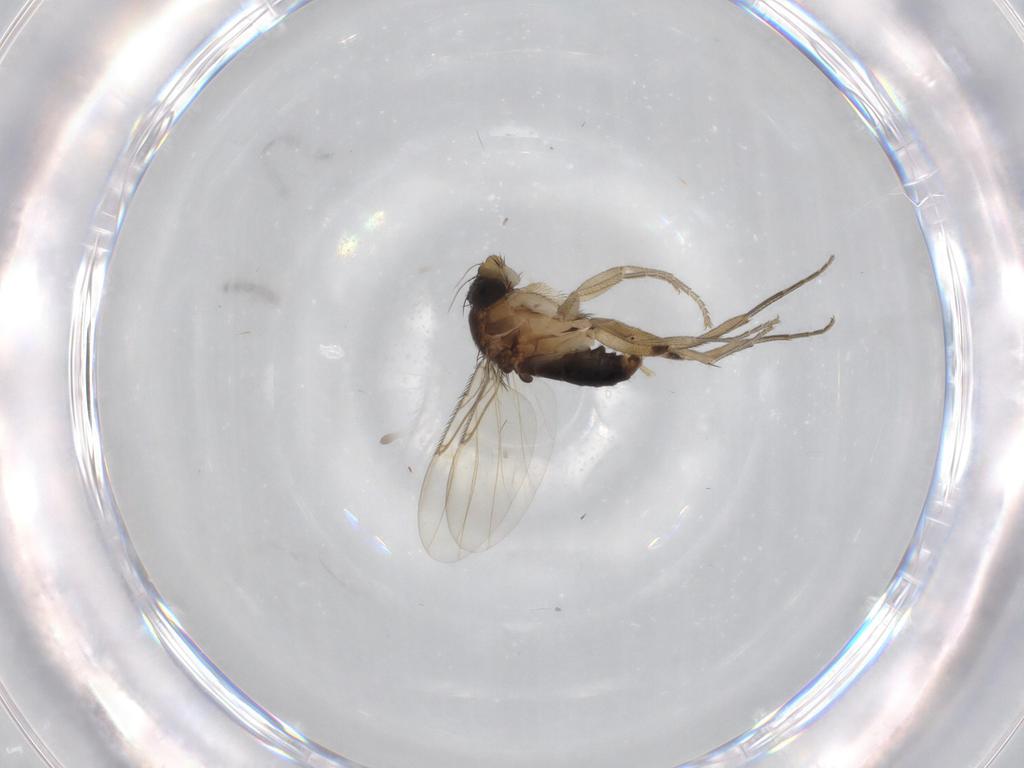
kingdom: Animalia
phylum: Arthropoda
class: Insecta
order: Diptera
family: Phoridae
